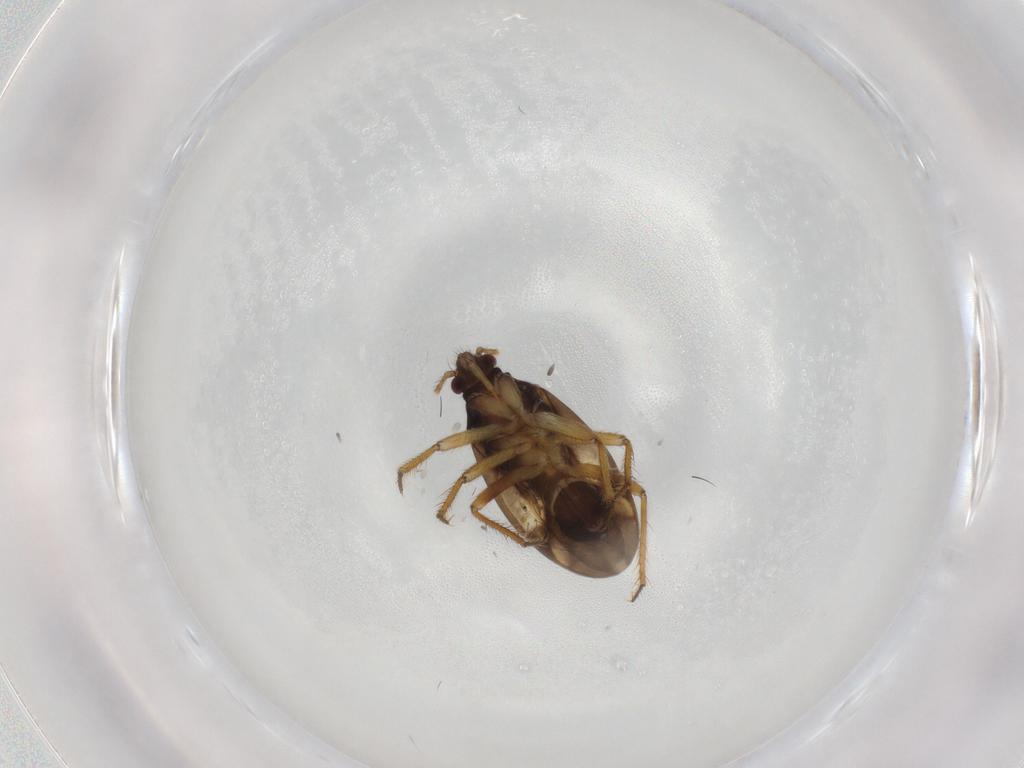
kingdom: Animalia
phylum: Arthropoda
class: Insecta
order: Hemiptera
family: Ceratocombidae
